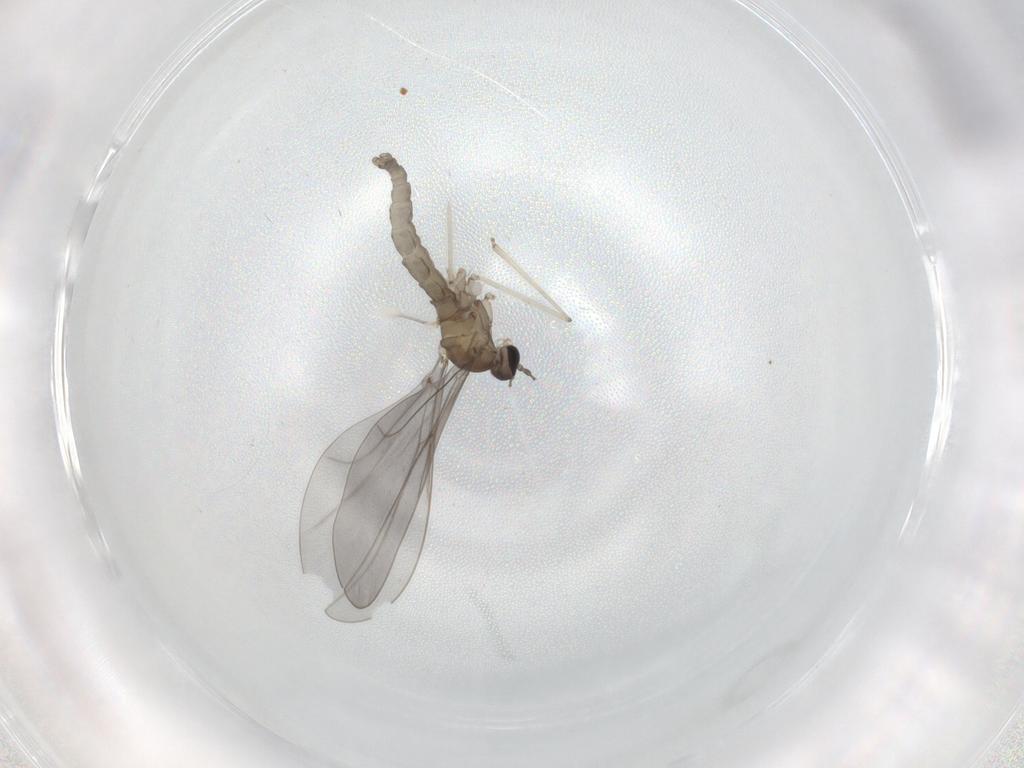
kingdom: Animalia
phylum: Arthropoda
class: Insecta
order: Diptera
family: Cecidomyiidae
